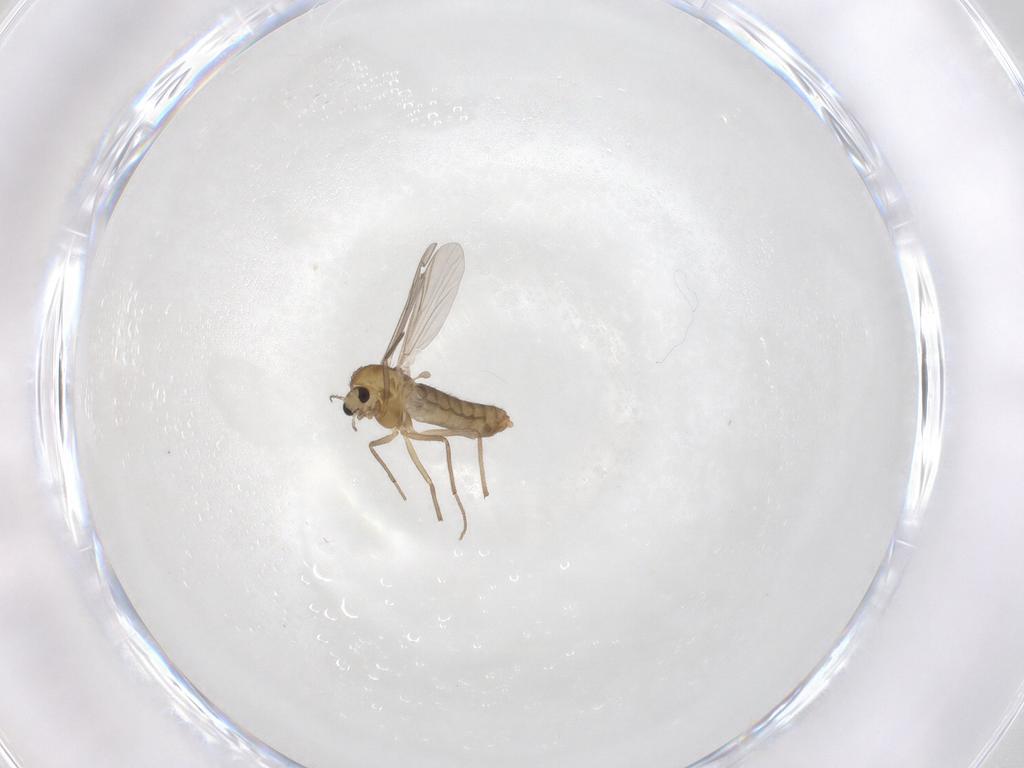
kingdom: Animalia
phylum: Arthropoda
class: Insecta
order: Diptera
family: Chironomidae
